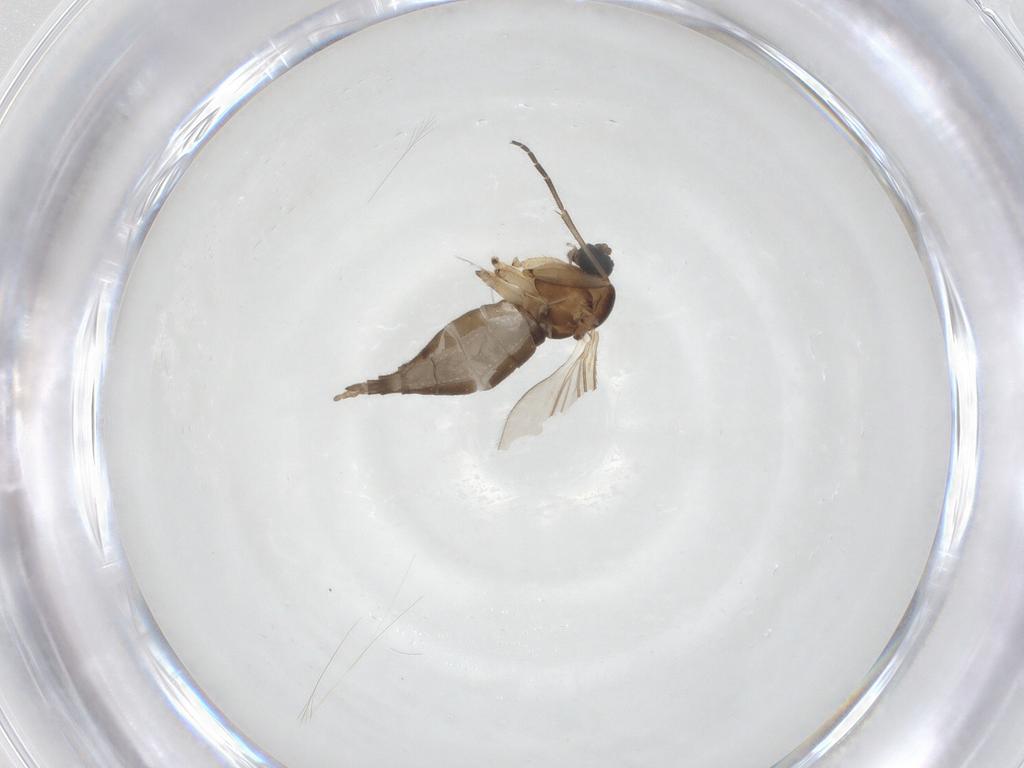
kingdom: Animalia
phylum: Arthropoda
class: Insecta
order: Diptera
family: Sciaridae
